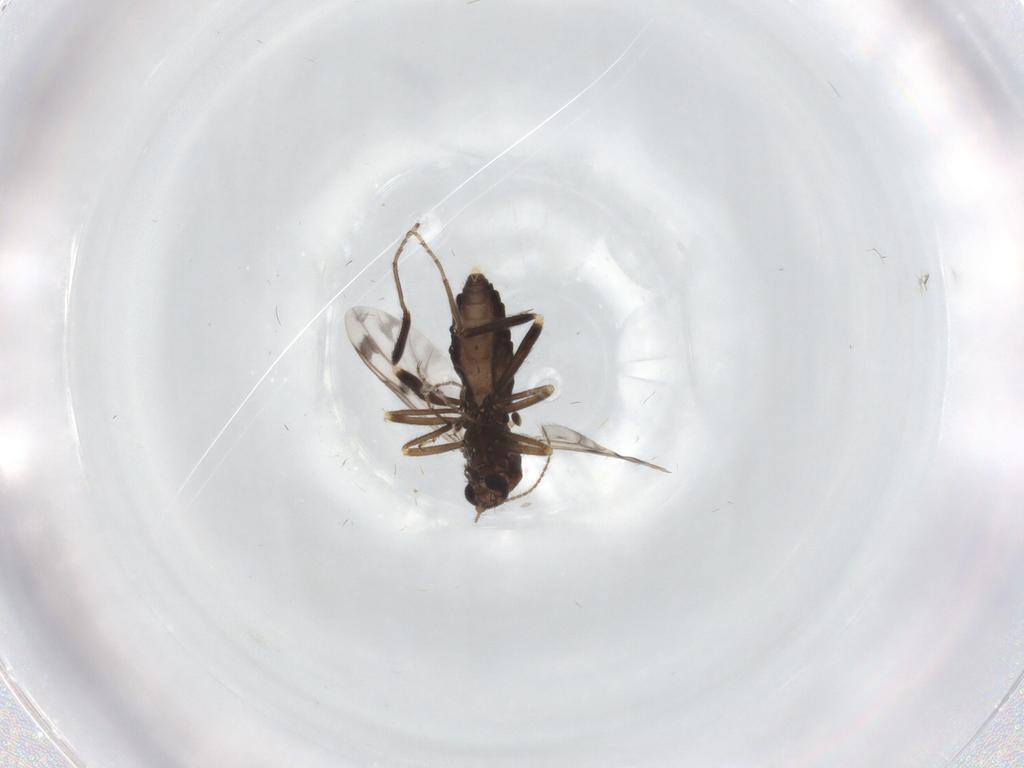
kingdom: Animalia
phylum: Arthropoda
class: Insecta
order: Diptera
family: Ceratopogonidae
